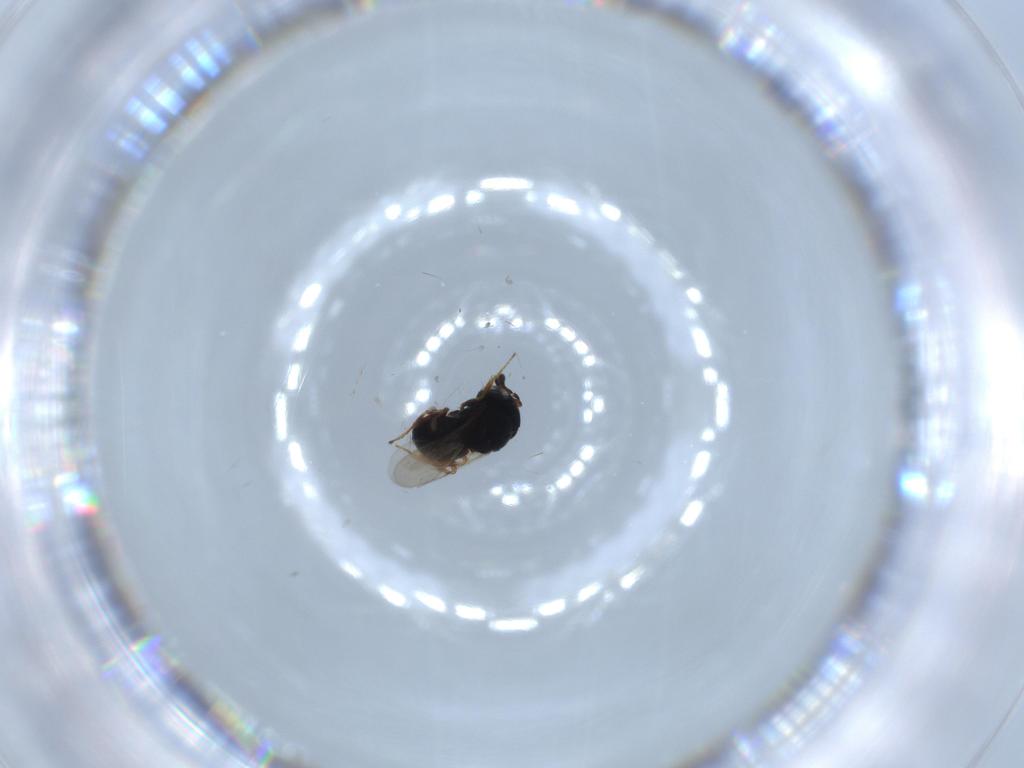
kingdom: Animalia
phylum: Arthropoda
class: Insecta
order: Hymenoptera
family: Scelionidae
